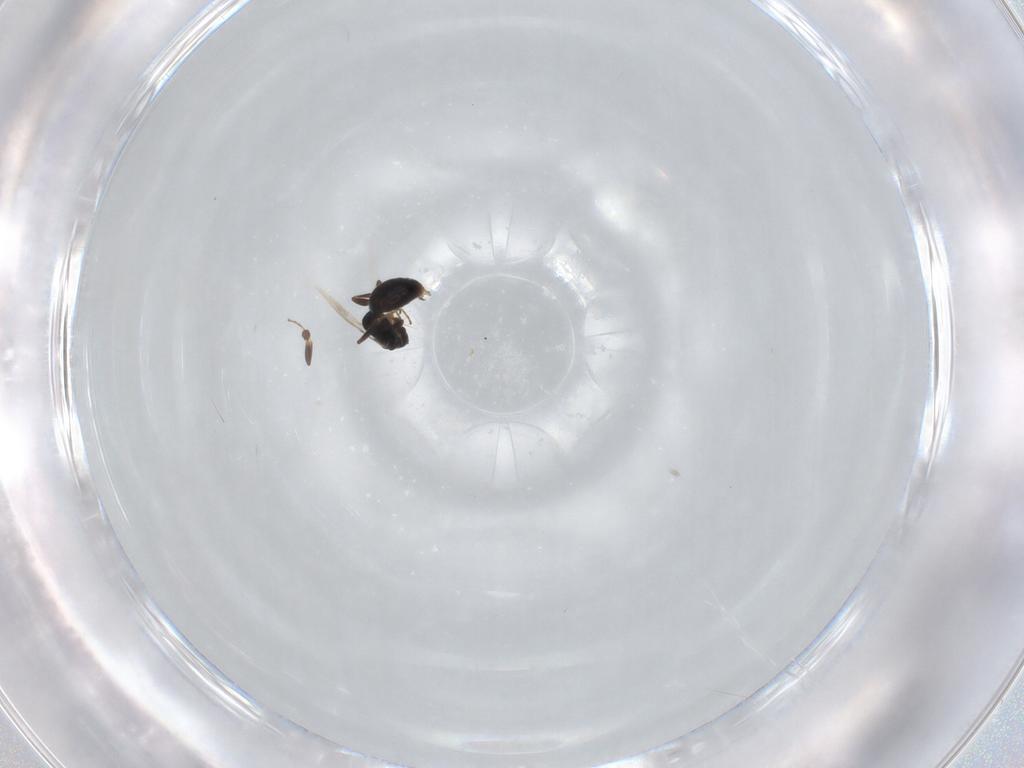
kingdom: Animalia
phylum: Arthropoda
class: Insecta
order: Hymenoptera
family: Bethylidae
